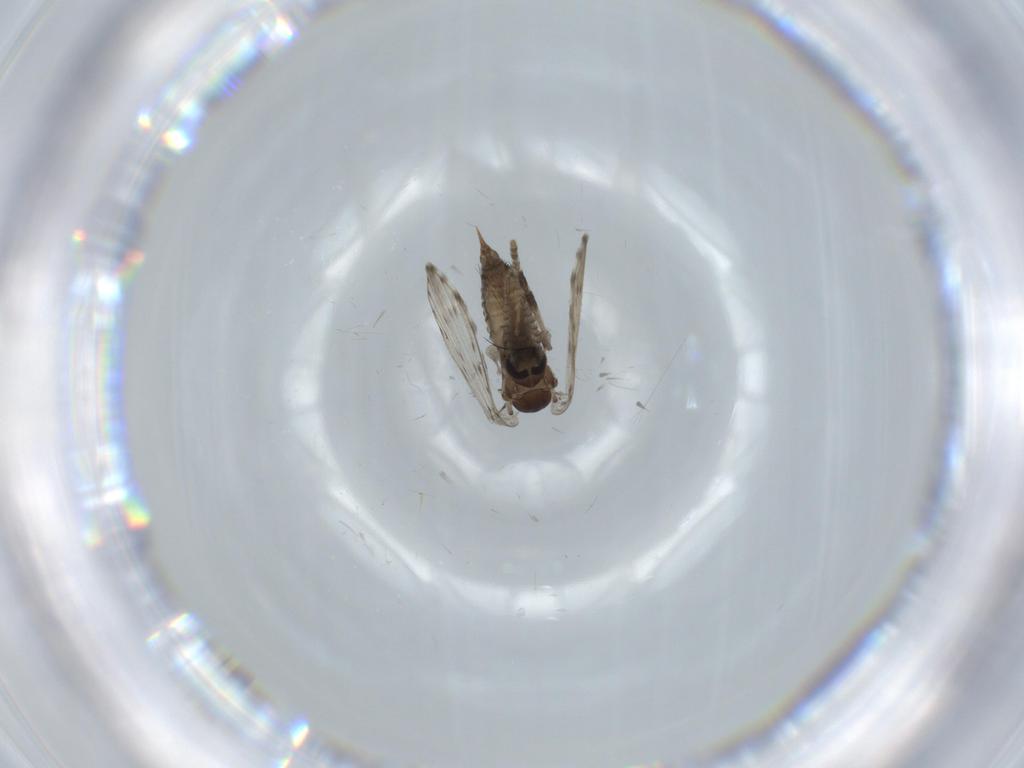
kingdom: Animalia
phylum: Arthropoda
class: Insecta
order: Diptera
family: Psychodidae
